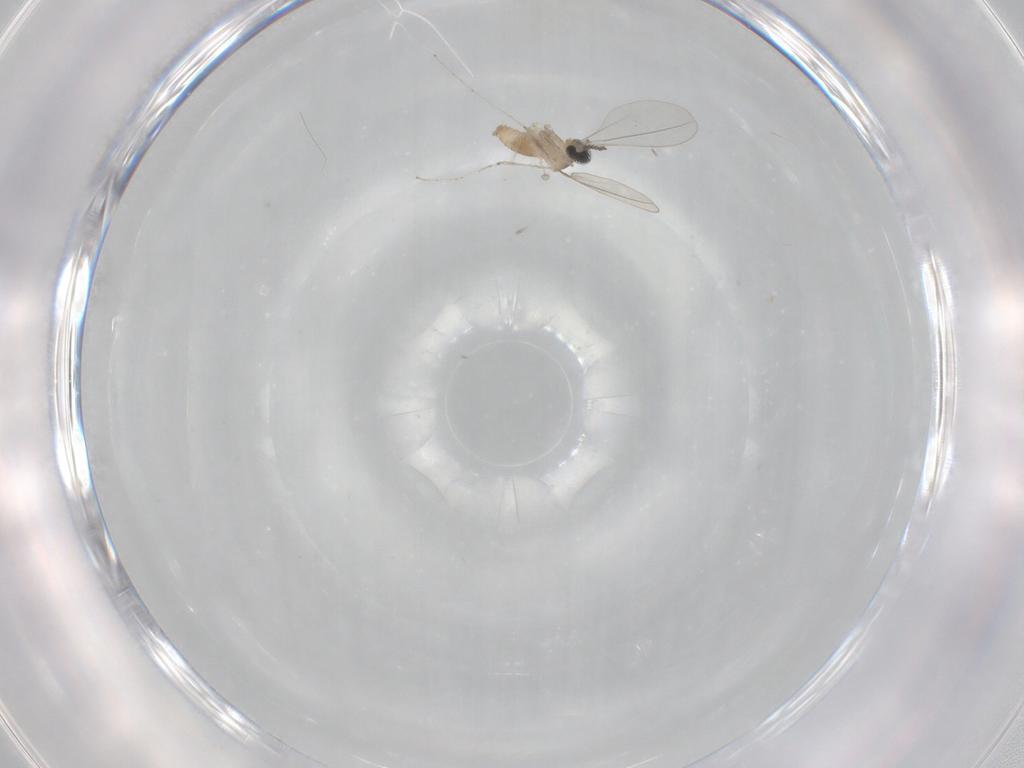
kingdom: Animalia
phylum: Arthropoda
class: Insecta
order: Diptera
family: Cecidomyiidae
